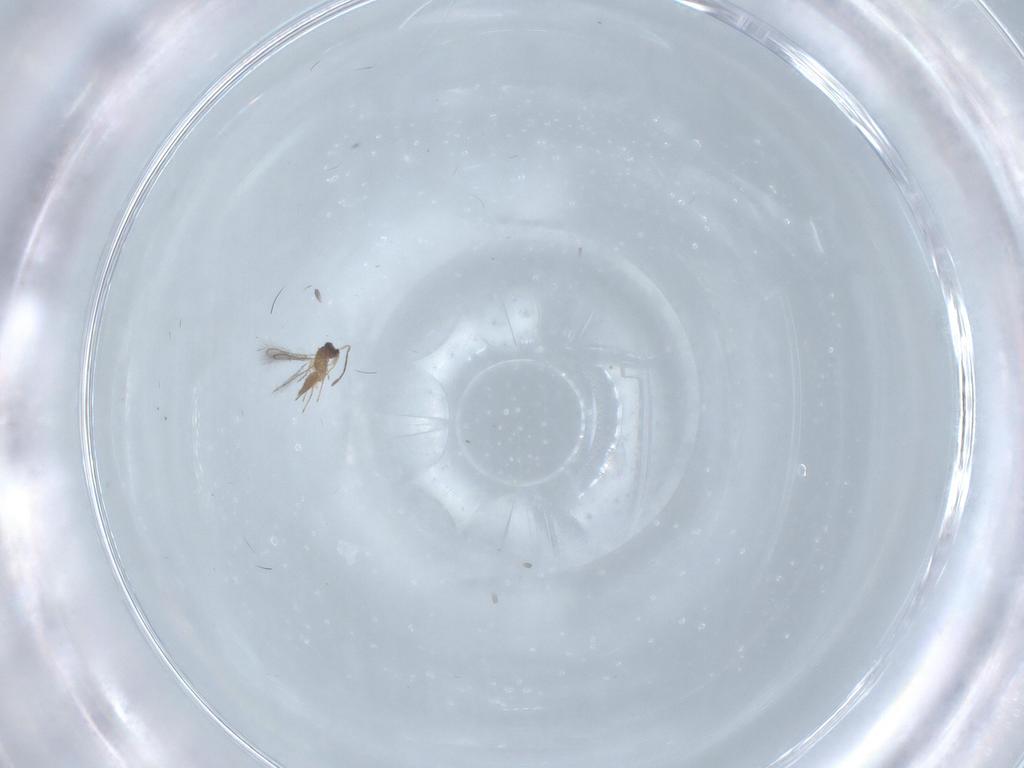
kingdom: Animalia
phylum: Arthropoda
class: Insecta
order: Hymenoptera
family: Mymaridae
